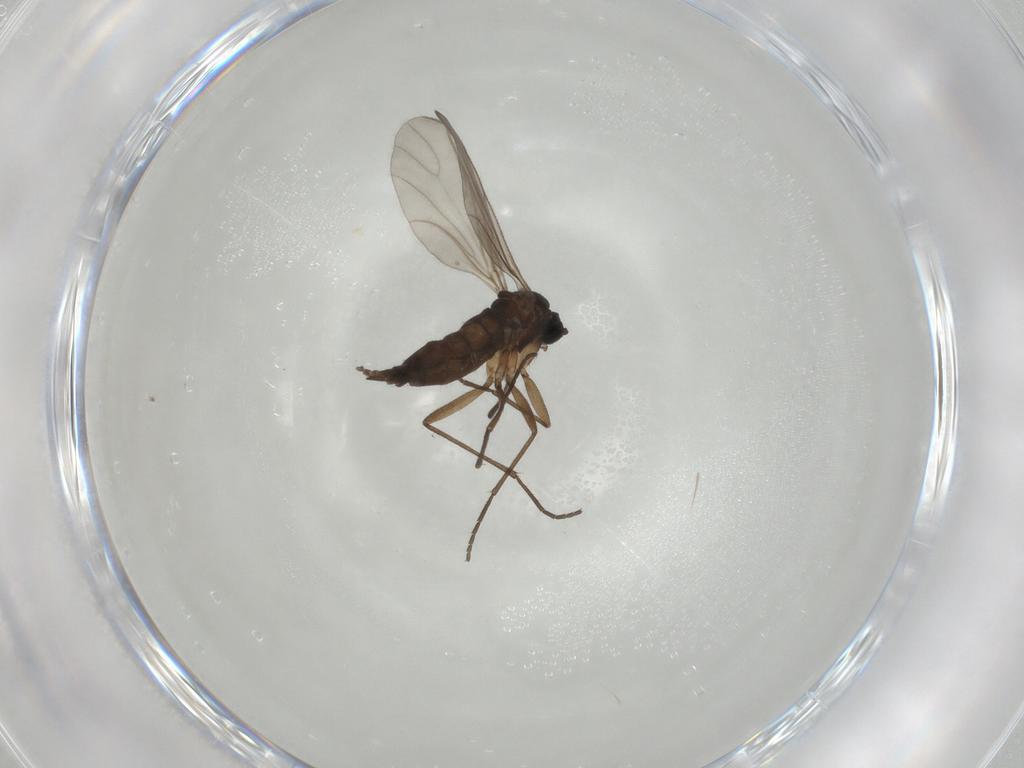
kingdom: Animalia
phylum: Arthropoda
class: Insecta
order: Diptera
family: Sciaridae
